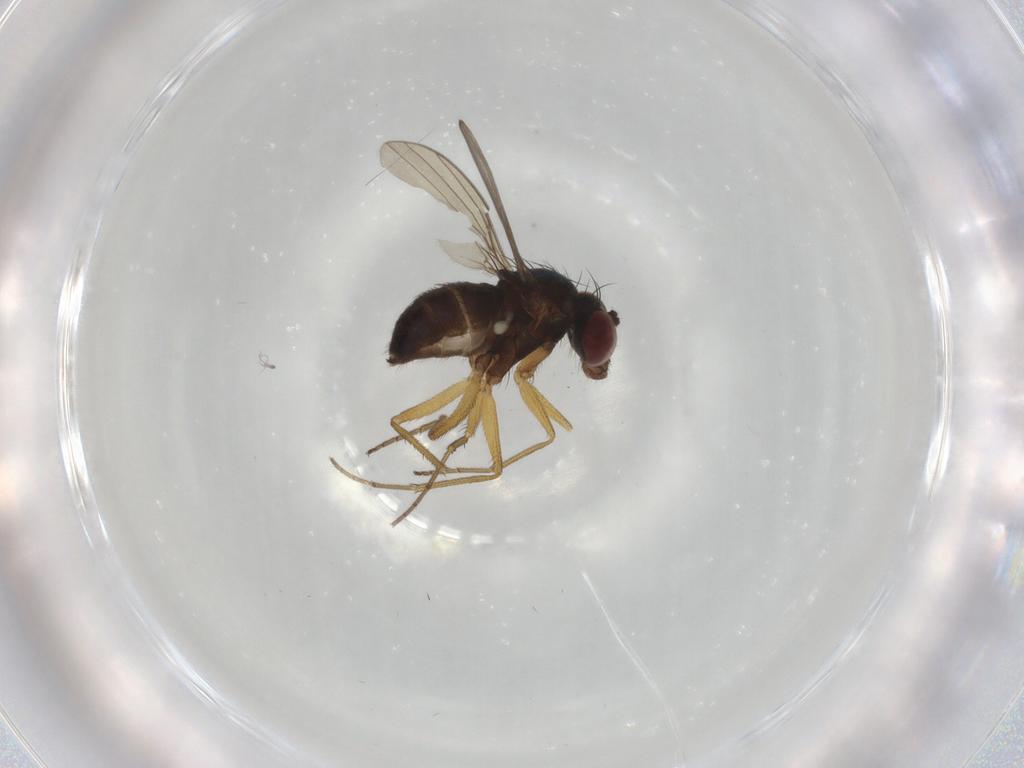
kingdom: Animalia
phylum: Arthropoda
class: Insecta
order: Diptera
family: Dolichopodidae
